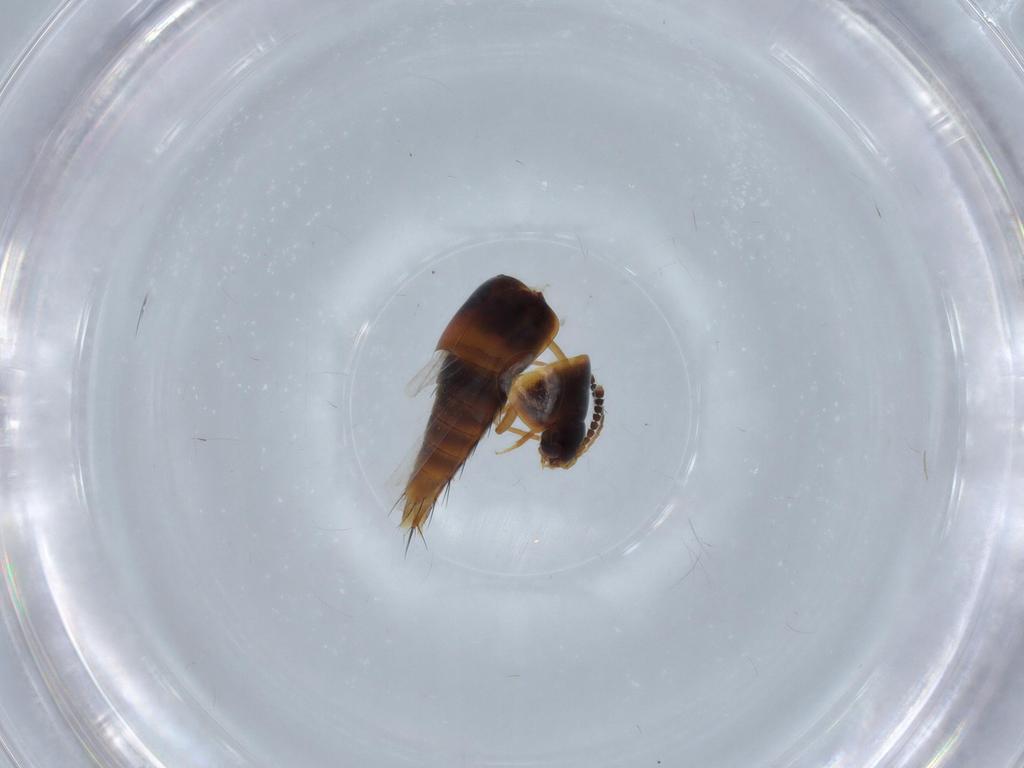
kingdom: Animalia
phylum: Arthropoda
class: Insecta
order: Coleoptera
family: Staphylinidae
